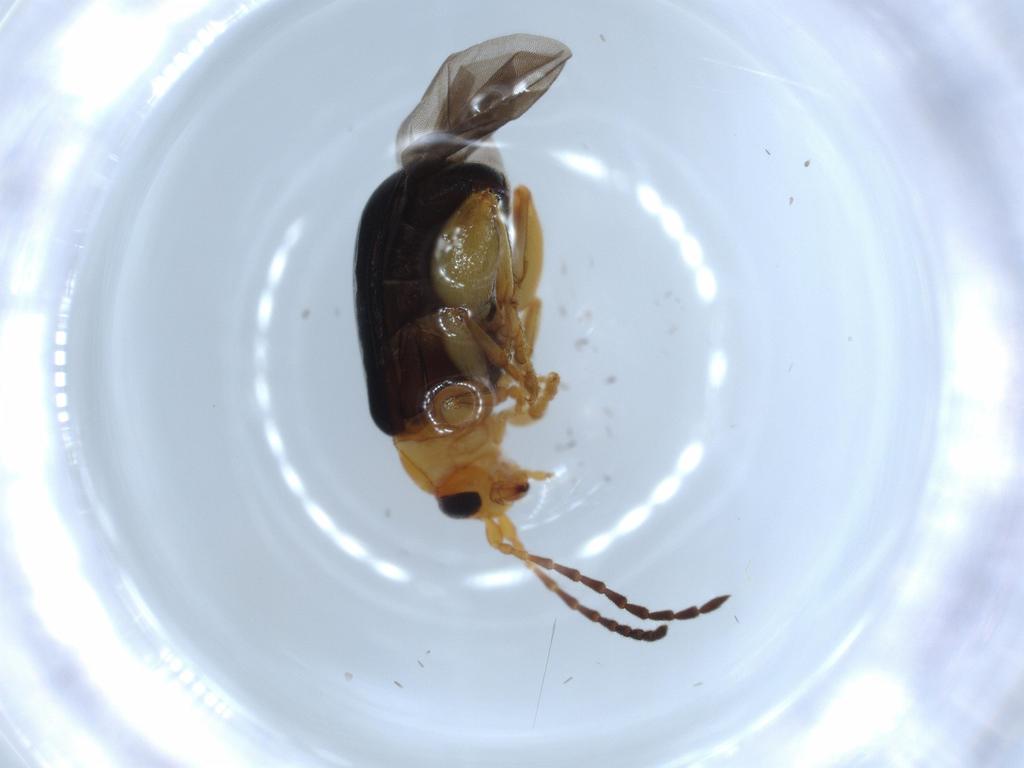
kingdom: Animalia
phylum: Arthropoda
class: Insecta
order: Coleoptera
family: Chrysomelidae
